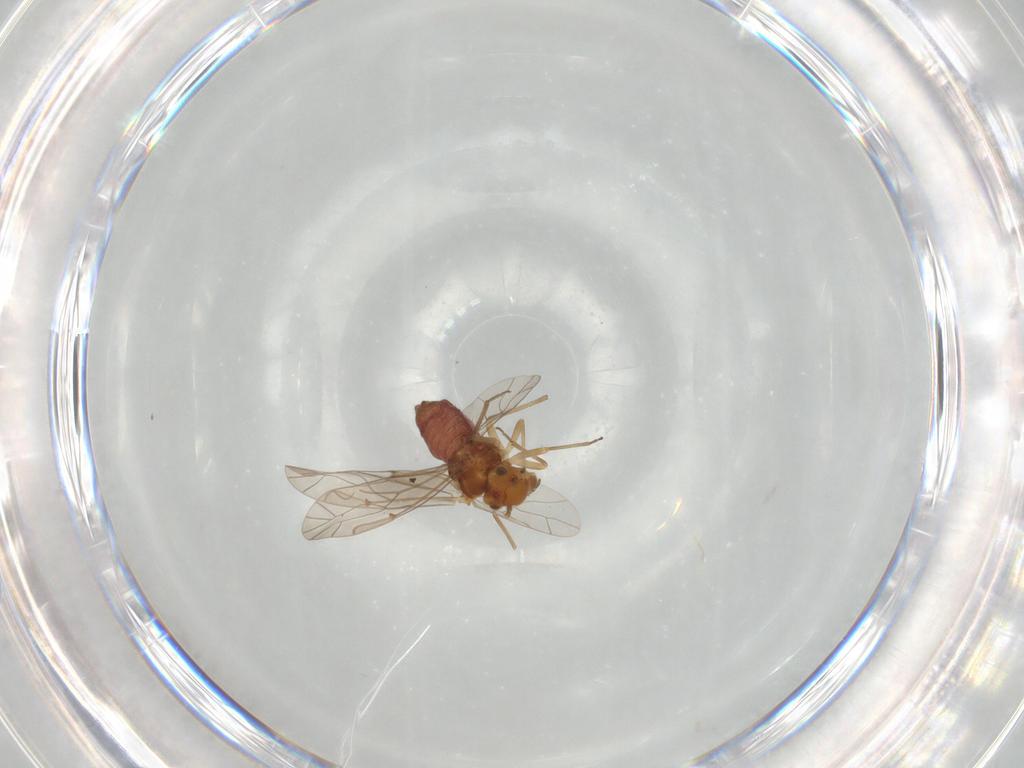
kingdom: Animalia
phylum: Arthropoda
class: Insecta
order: Psocodea
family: Lachesillidae
